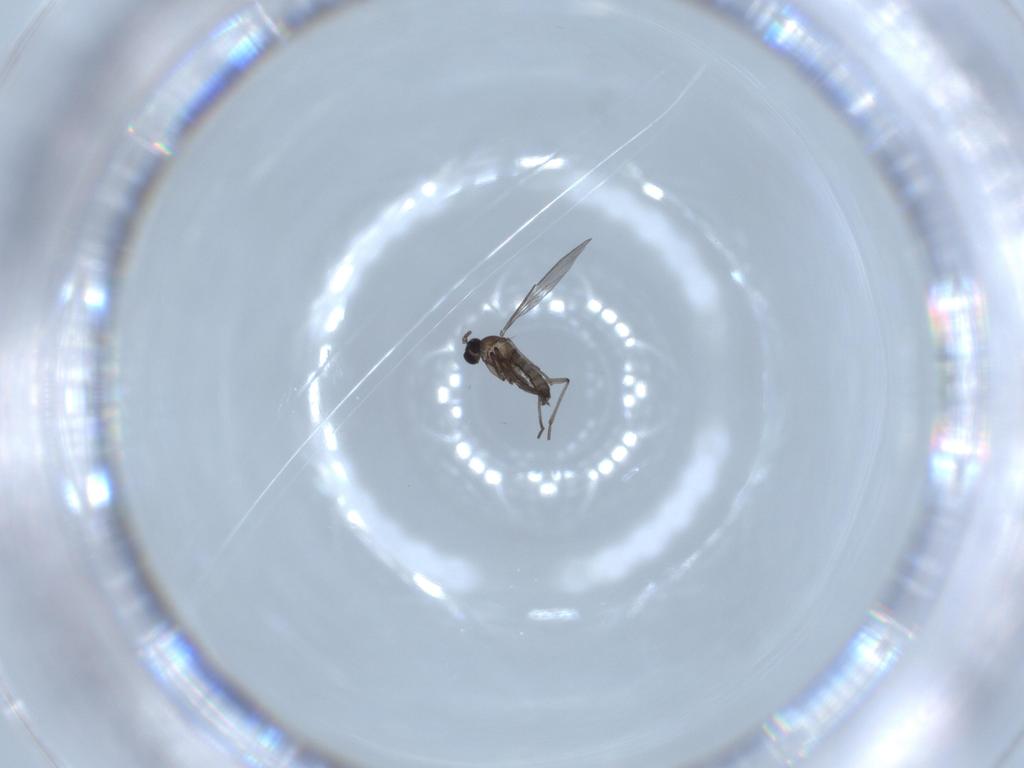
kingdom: Animalia
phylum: Arthropoda
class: Insecta
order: Diptera
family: Sciaridae
